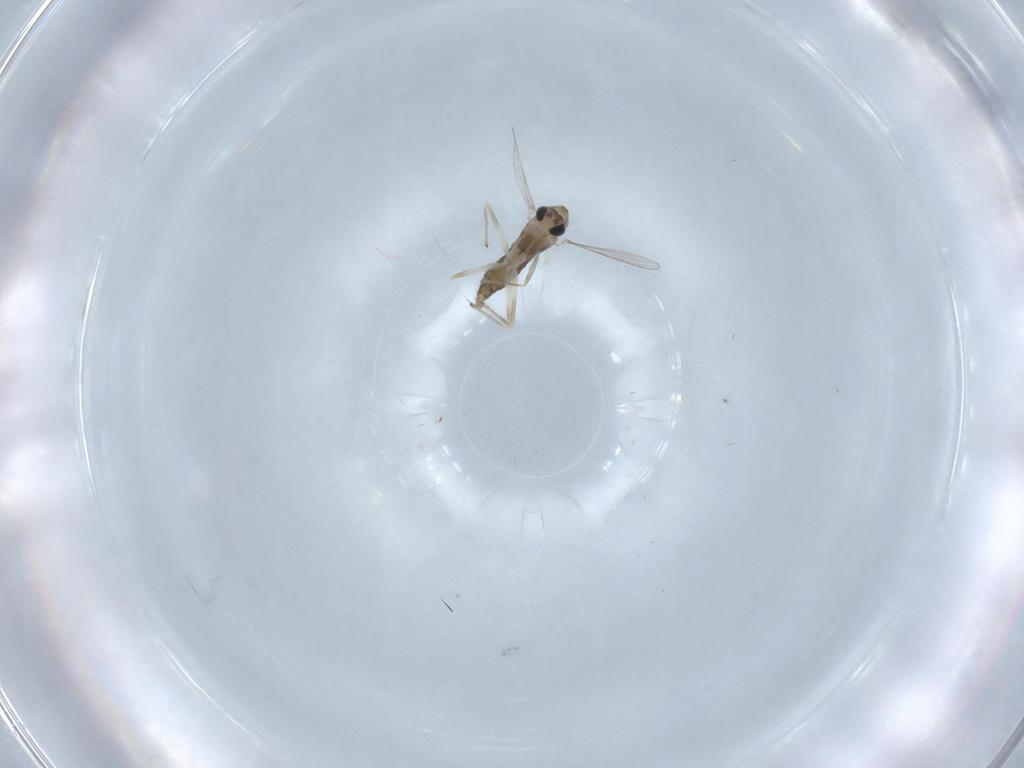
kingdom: Animalia
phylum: Arthropoda
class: Insecta
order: Diptera
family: Chironomidae
